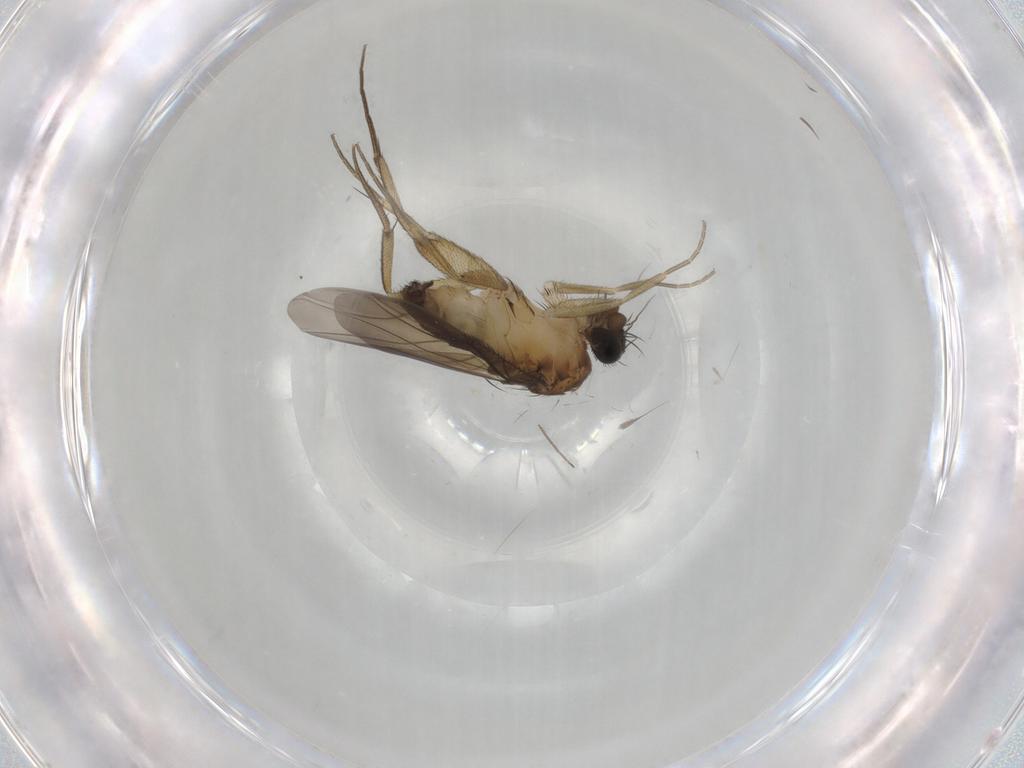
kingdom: Animalia
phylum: Arthropoda
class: Insecta
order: Diptera
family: Phoridae
